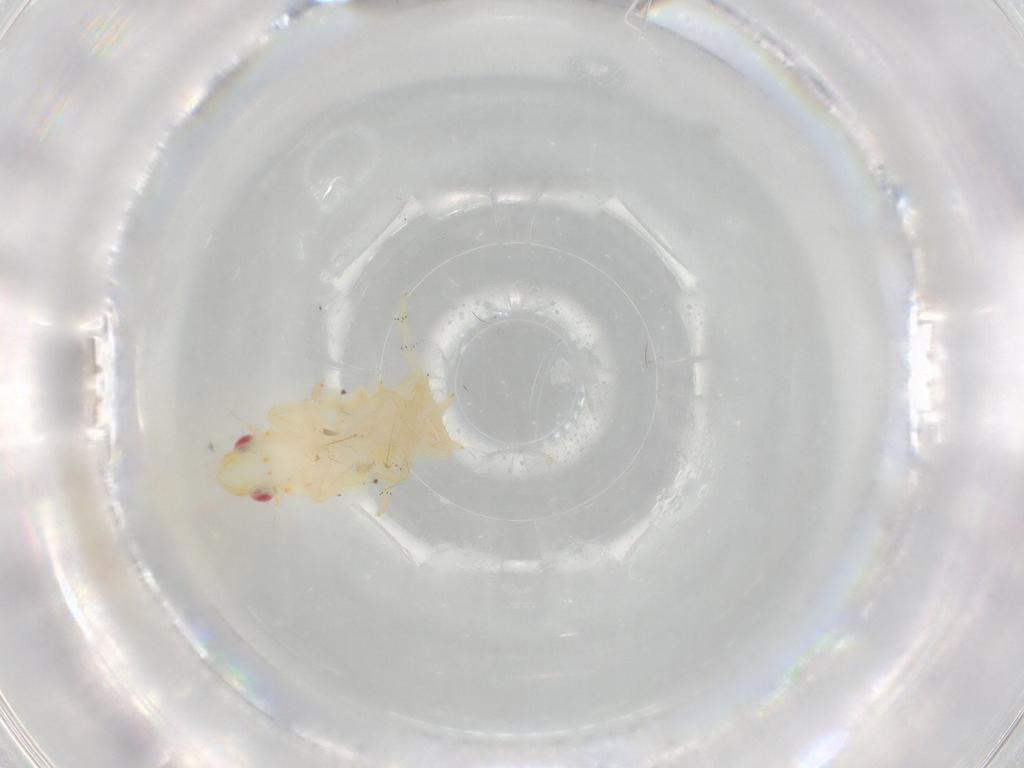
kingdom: Animalia
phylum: Arthropoda
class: Insecta
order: Hemiptera
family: Tropiduchidae
